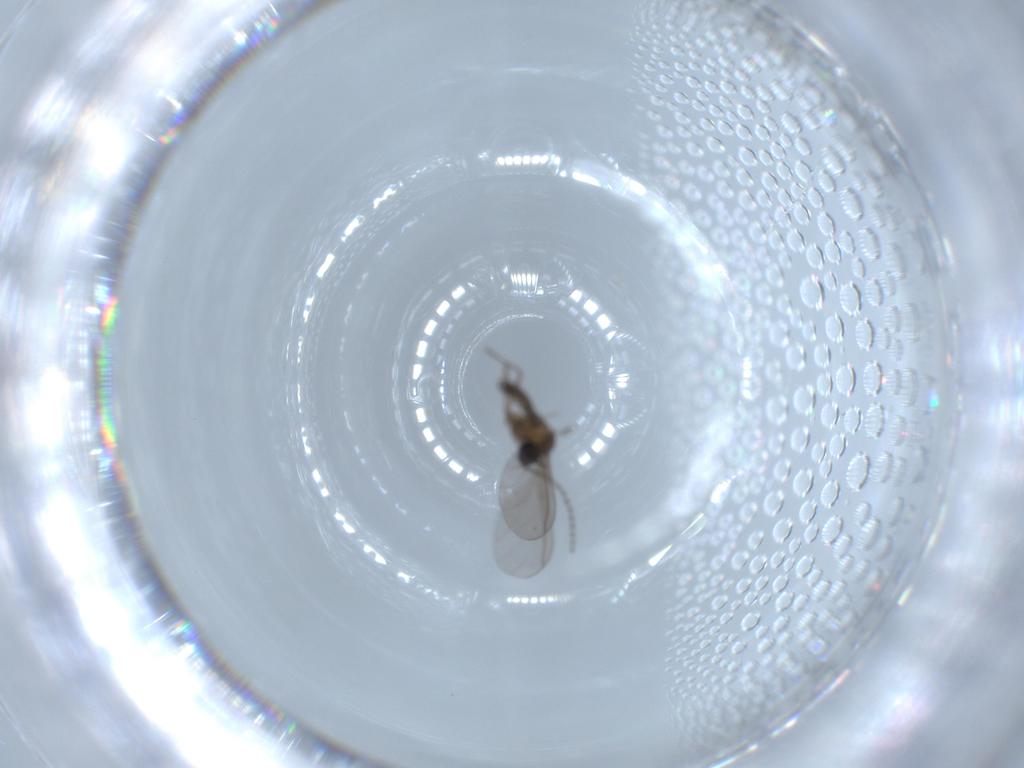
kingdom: Animalia
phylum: Arthropoda
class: Insecta
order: Diptera
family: Sciaridae
